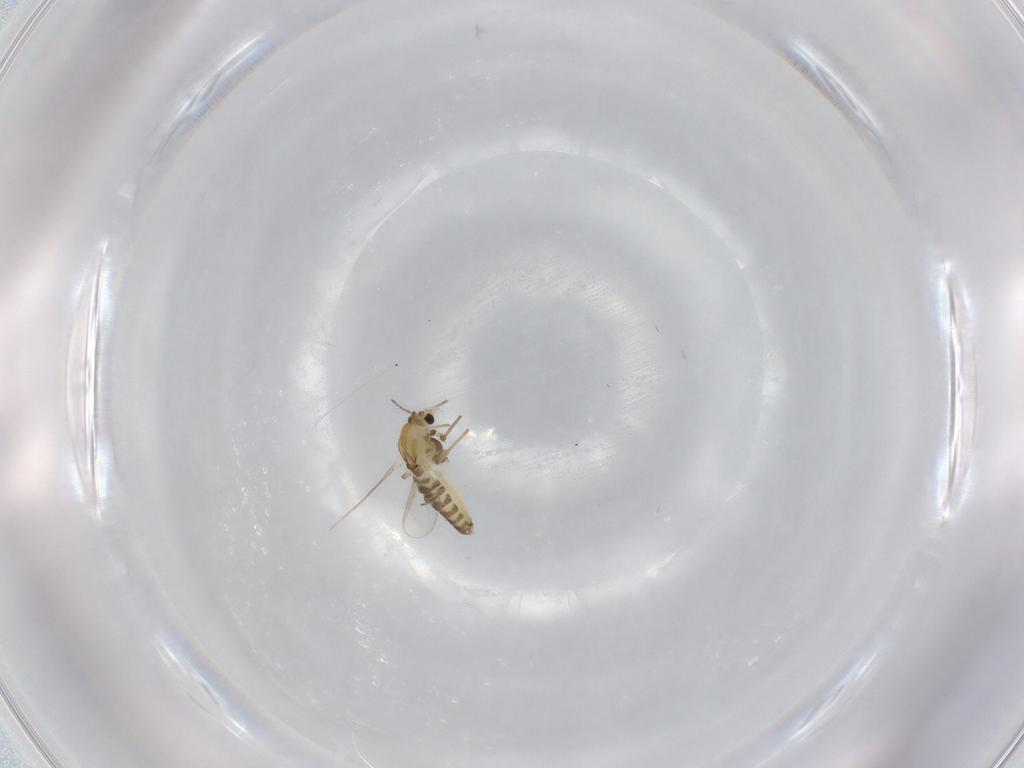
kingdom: Animalia
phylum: Arthropoda
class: Insecta
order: Diptera
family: Chironomidae
